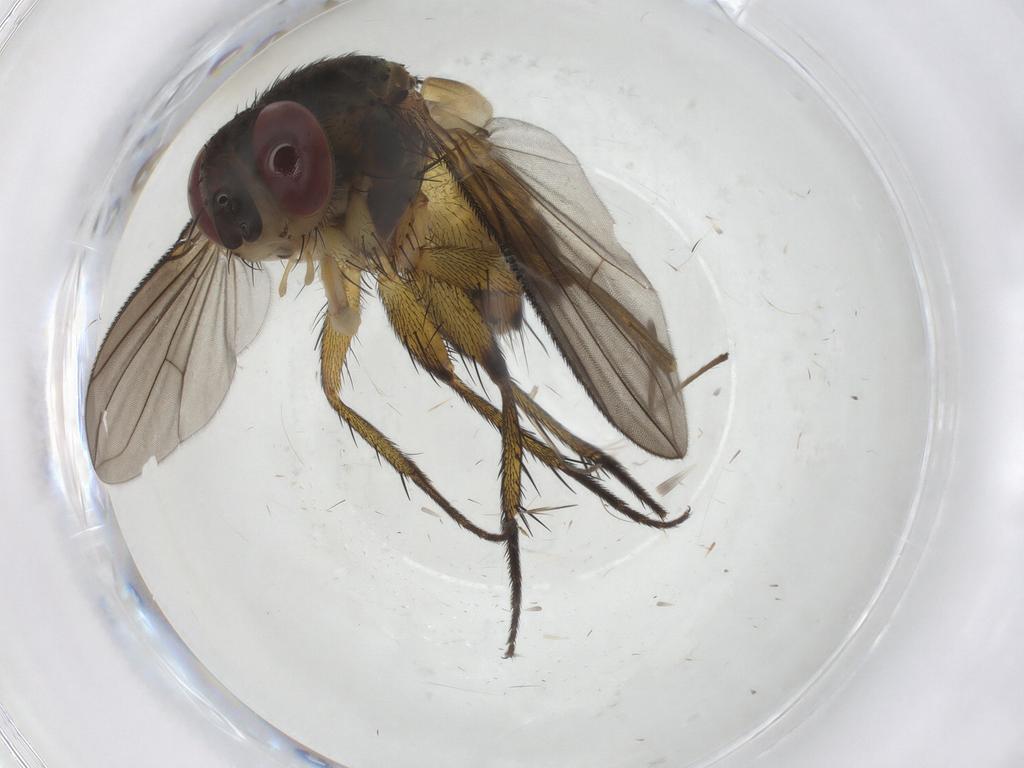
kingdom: Animalia
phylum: Arthropoda
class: Insecta
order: Diptera
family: Tachinidae
